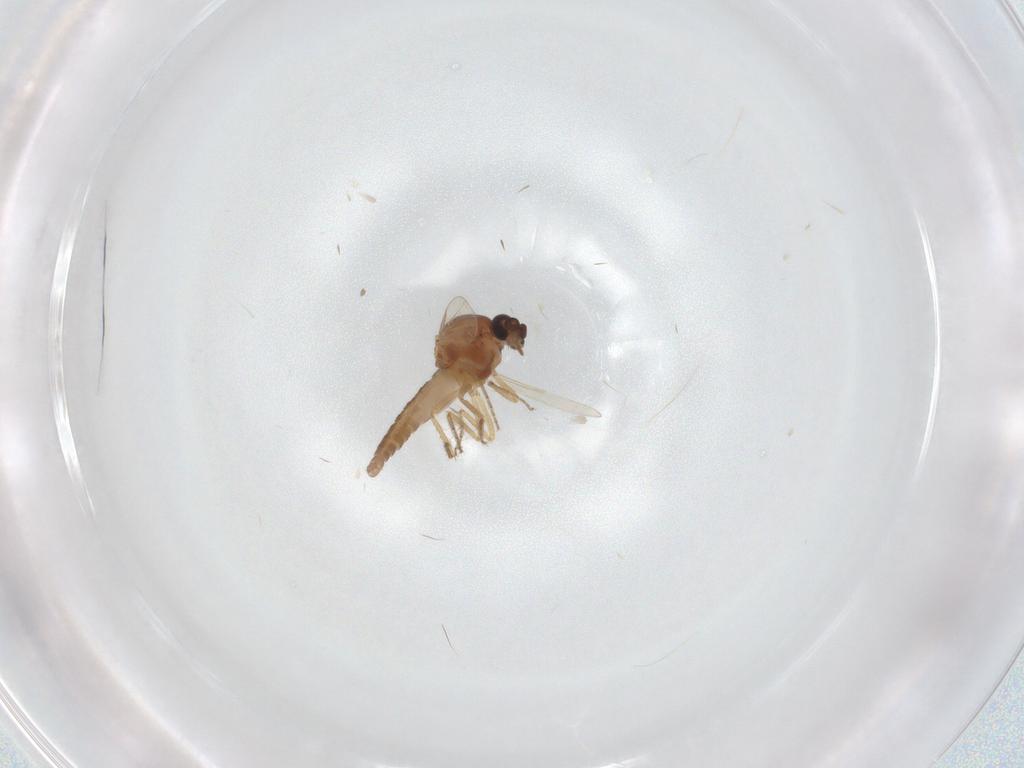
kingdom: Animalia
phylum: Arthropoda
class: Insecta
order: Diptera
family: Ceratopogonidae
